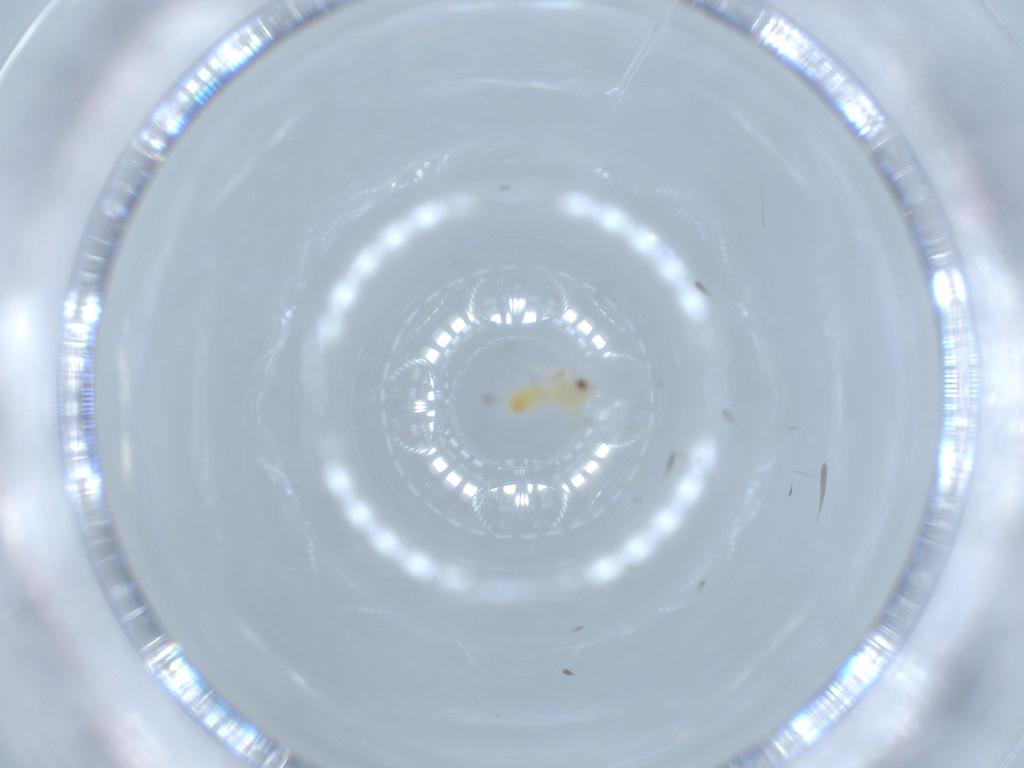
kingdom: Animalia
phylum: Arthropoda
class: Insecta
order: Hemiptera
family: Aleyrodidae
